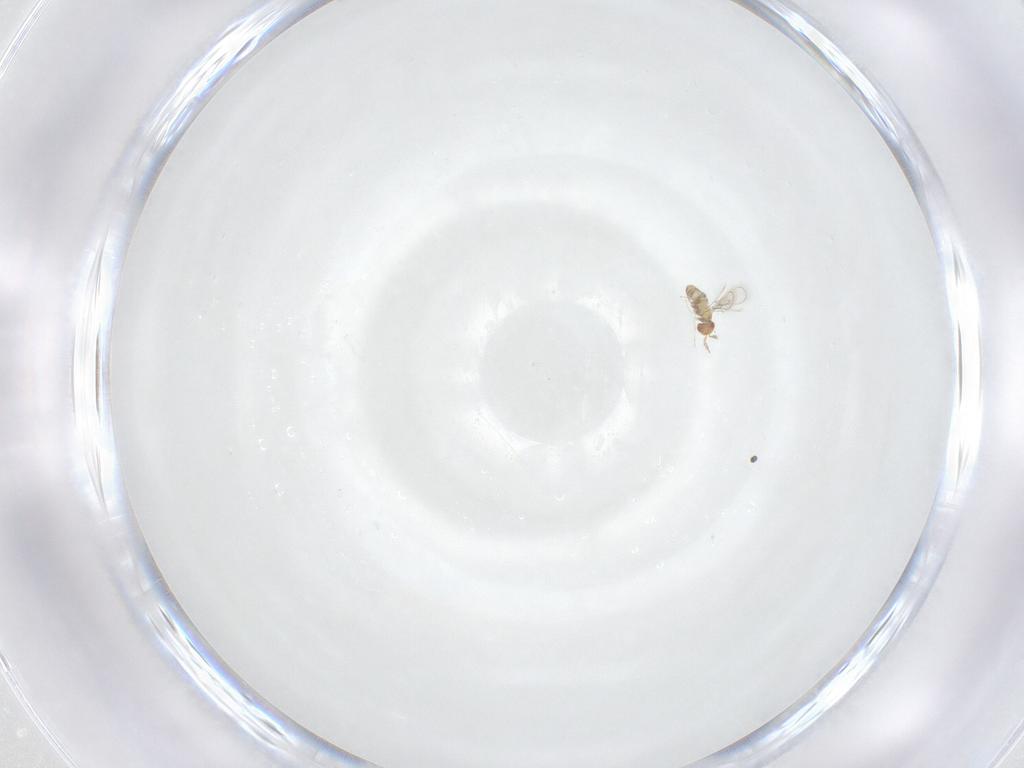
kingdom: Animalia
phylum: Arthropoda
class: Insecta
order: Hymenoptera
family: Trichogrammatidae
